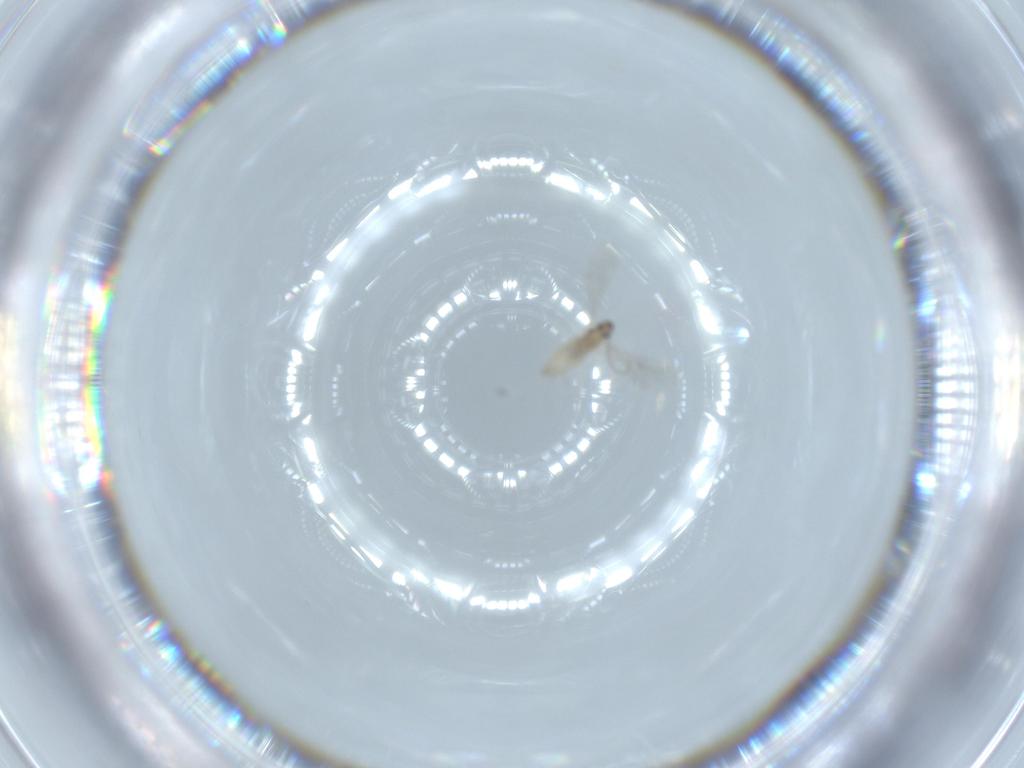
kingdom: Animalia
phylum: Arthropoda
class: Insecta
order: Diptera
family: Cecidomyiidae
